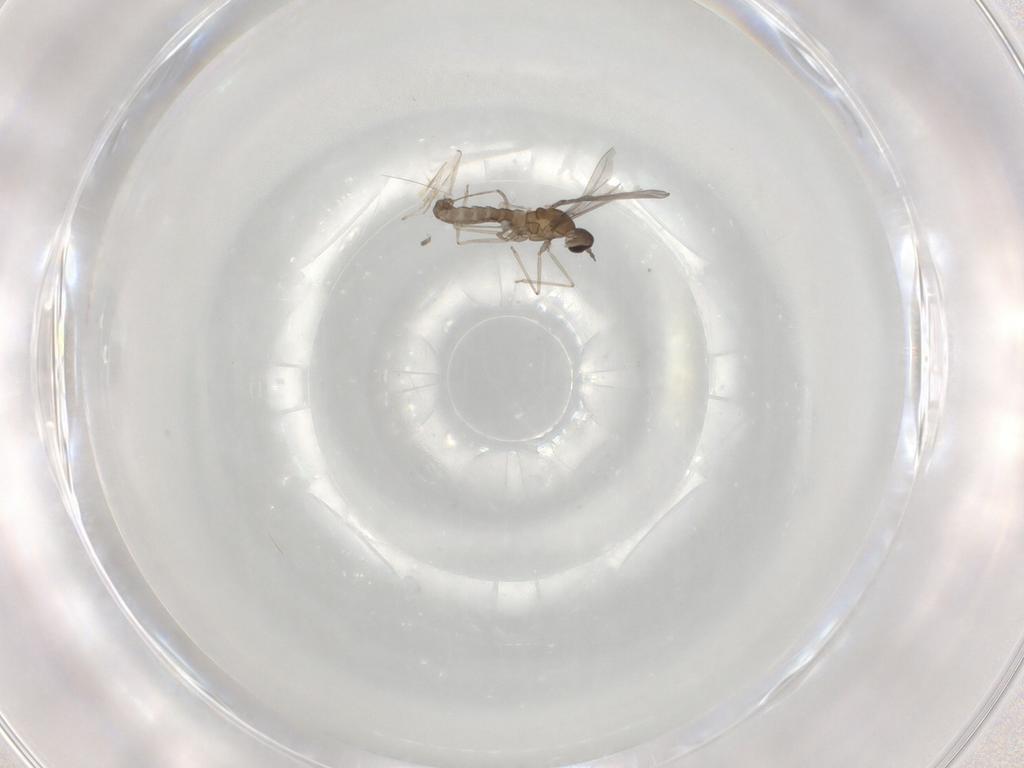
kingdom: Animalia
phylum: Arthropoda
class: Insecta
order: Diptera
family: Cecidomyiidae
